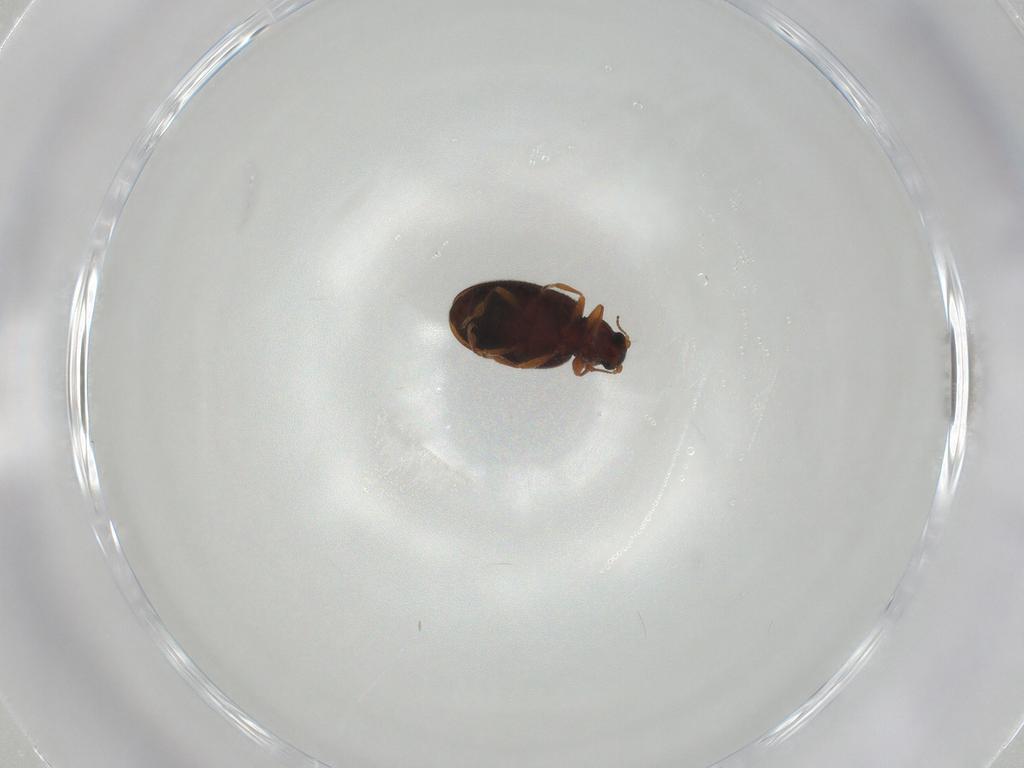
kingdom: Animalia
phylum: Arthropoda
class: Insecta
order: Coleoptera
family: Latridiidae
